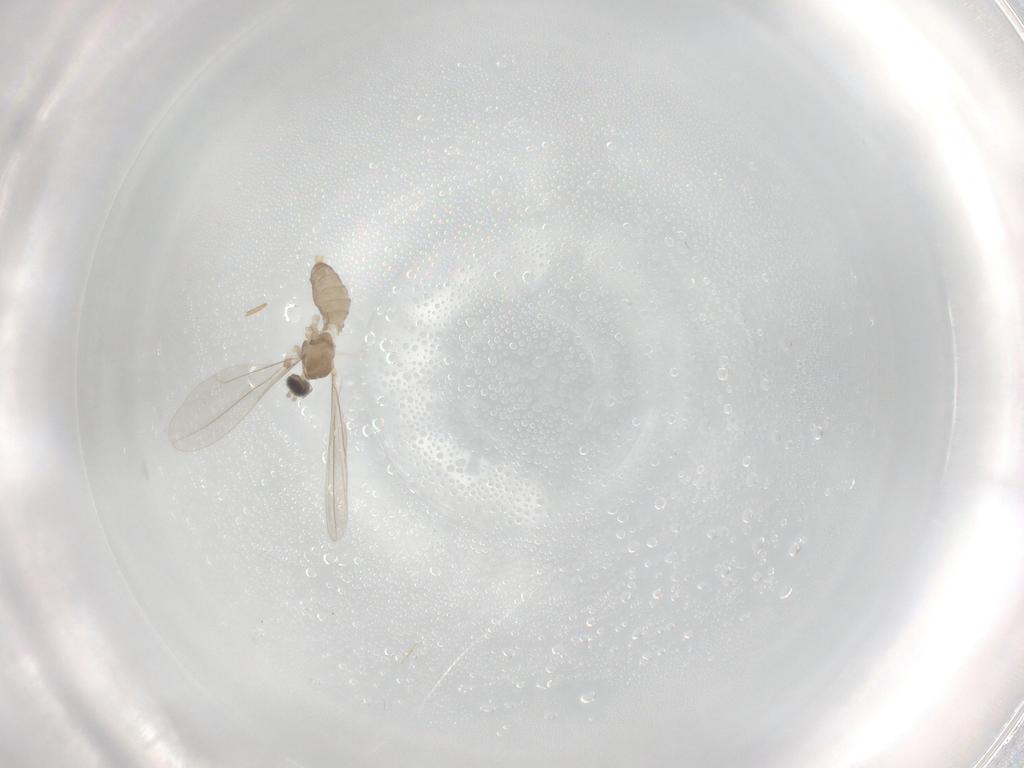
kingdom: Animalia
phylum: Arthropoda
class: Insecta
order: Diptera
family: Cecidomyiidae
